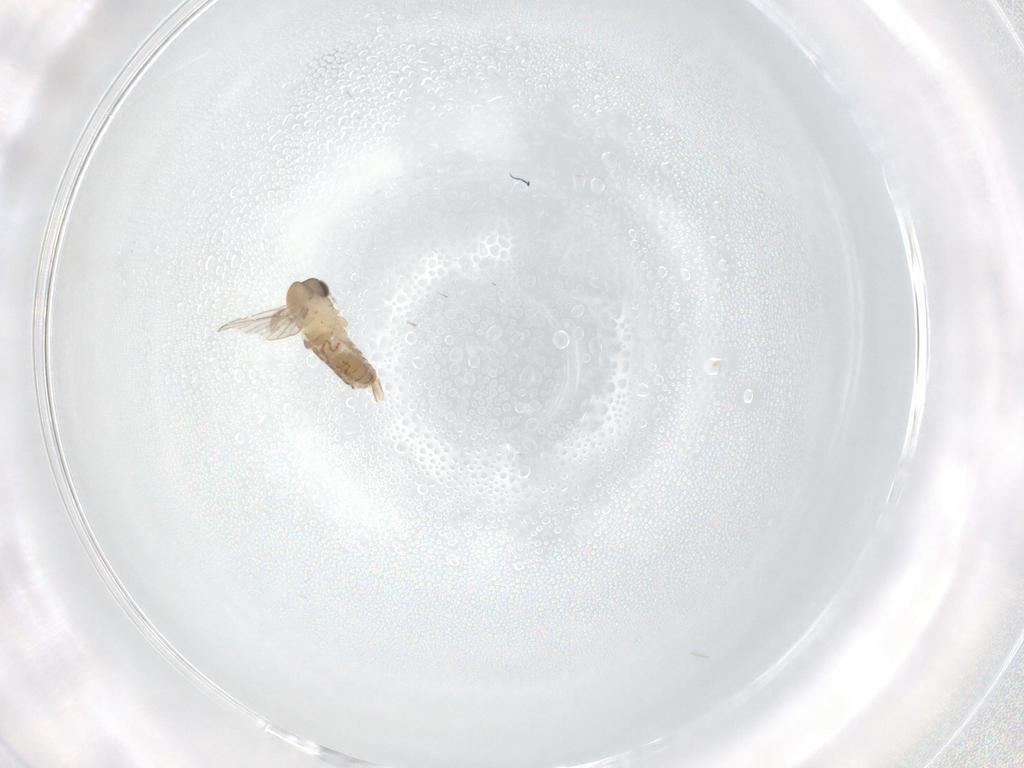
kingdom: Animalia
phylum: Arthropoda
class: Insecta
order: Diptera
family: Psychodidae
